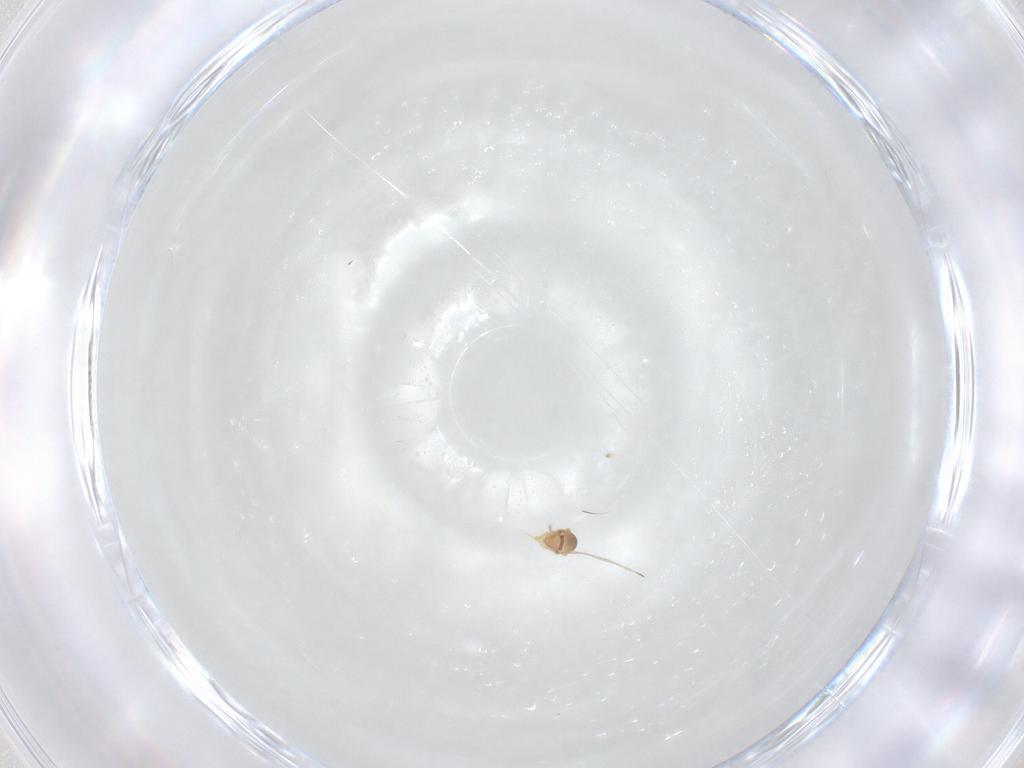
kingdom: Animalia
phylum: Arthropoda
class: Insecta
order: Hemiptera
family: Diaspididae
